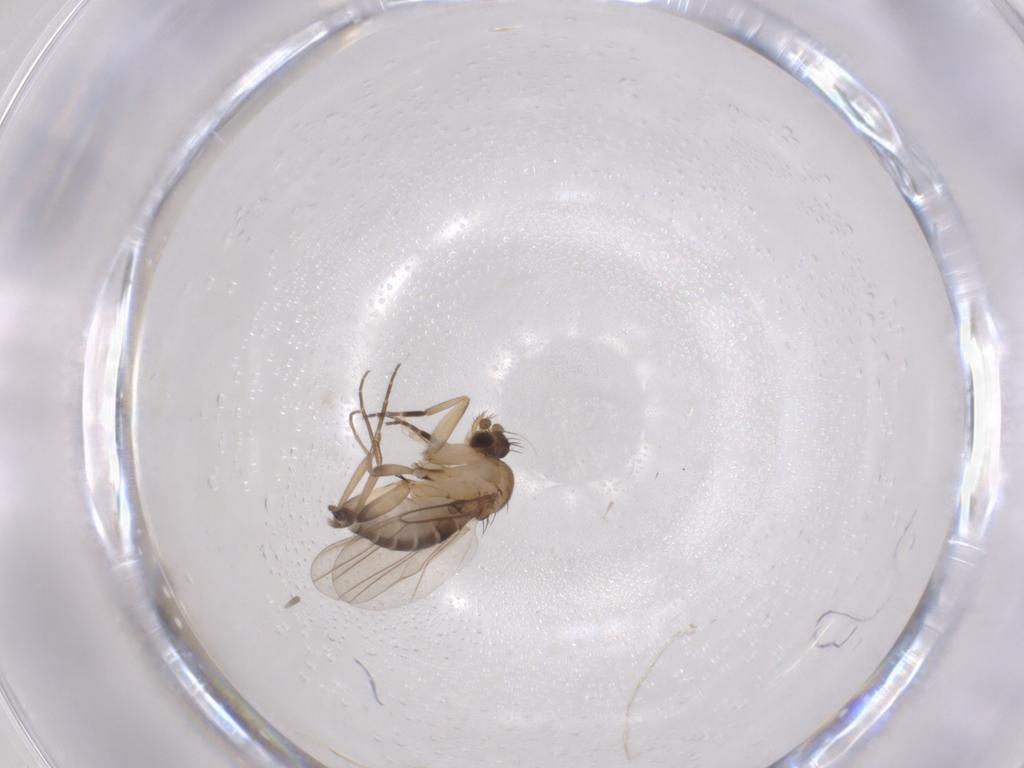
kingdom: Animalia
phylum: Arthropoda
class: Insecta
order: Diptera
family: Phoridae
